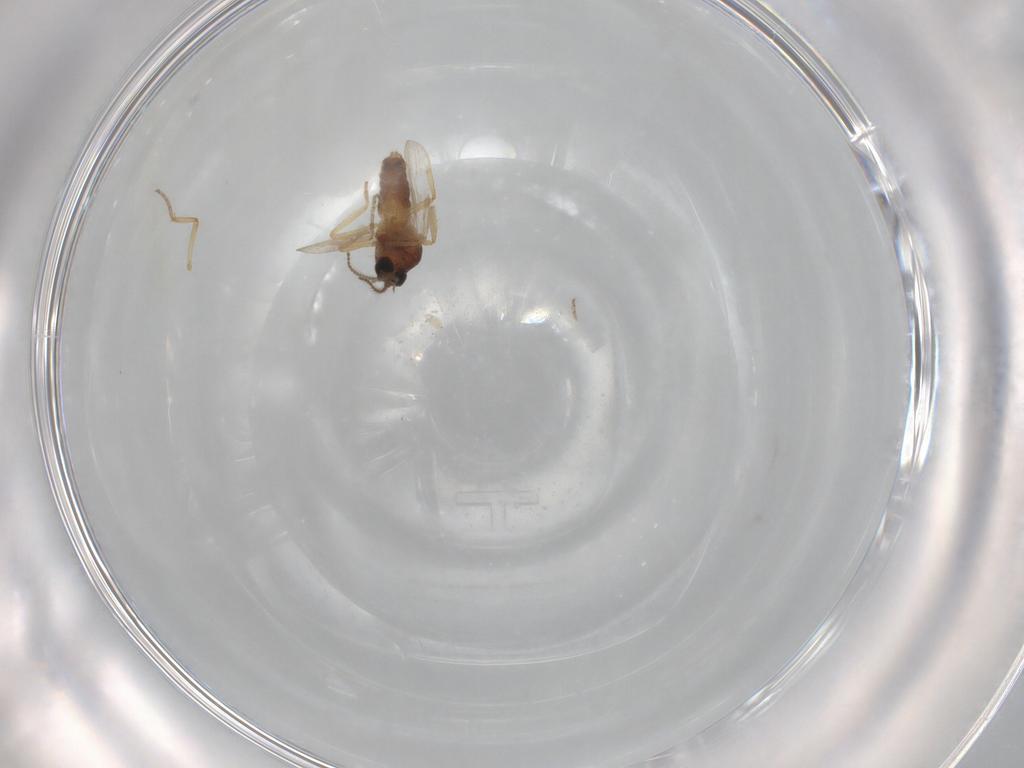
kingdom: Animalia
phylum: Arthropoda
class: Insecta
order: Diptera
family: Ceratopogonidae
